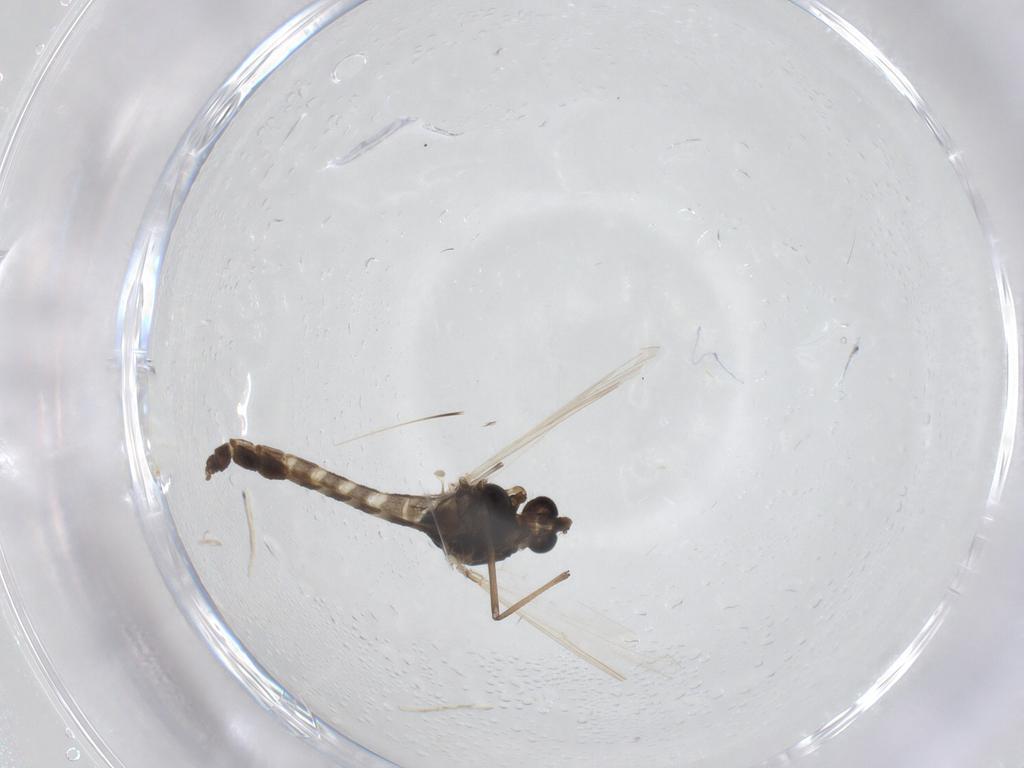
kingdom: Animalia
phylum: Arthropoda
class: Insecta
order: Diptera
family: Chironomidae
